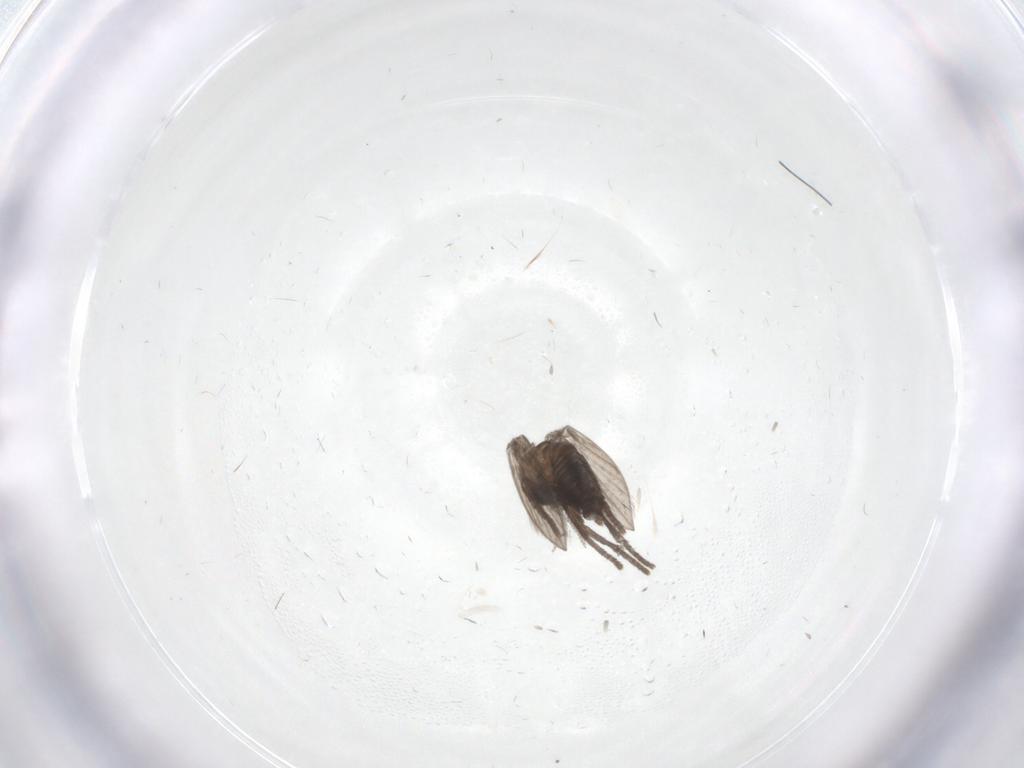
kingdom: Animalia
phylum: Arthropoda
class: Insecta
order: Diptera
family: Psychodidae
